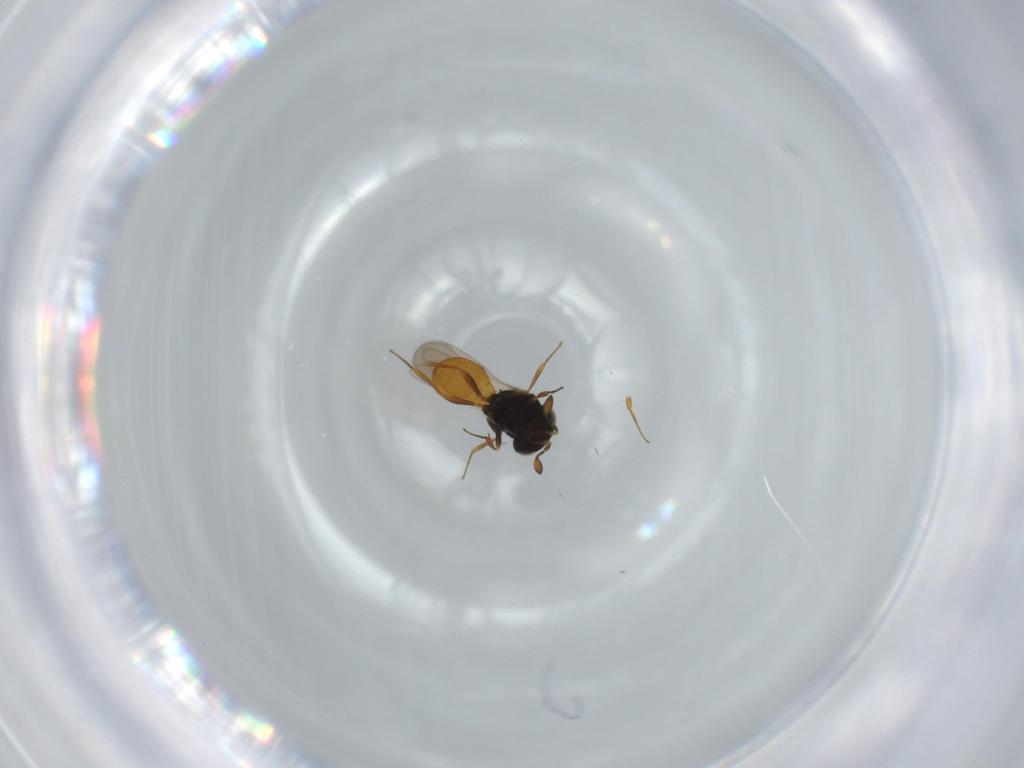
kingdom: Animalia
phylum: Arthropoda
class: Insecta
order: Hymenoptera
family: Scelionidae
